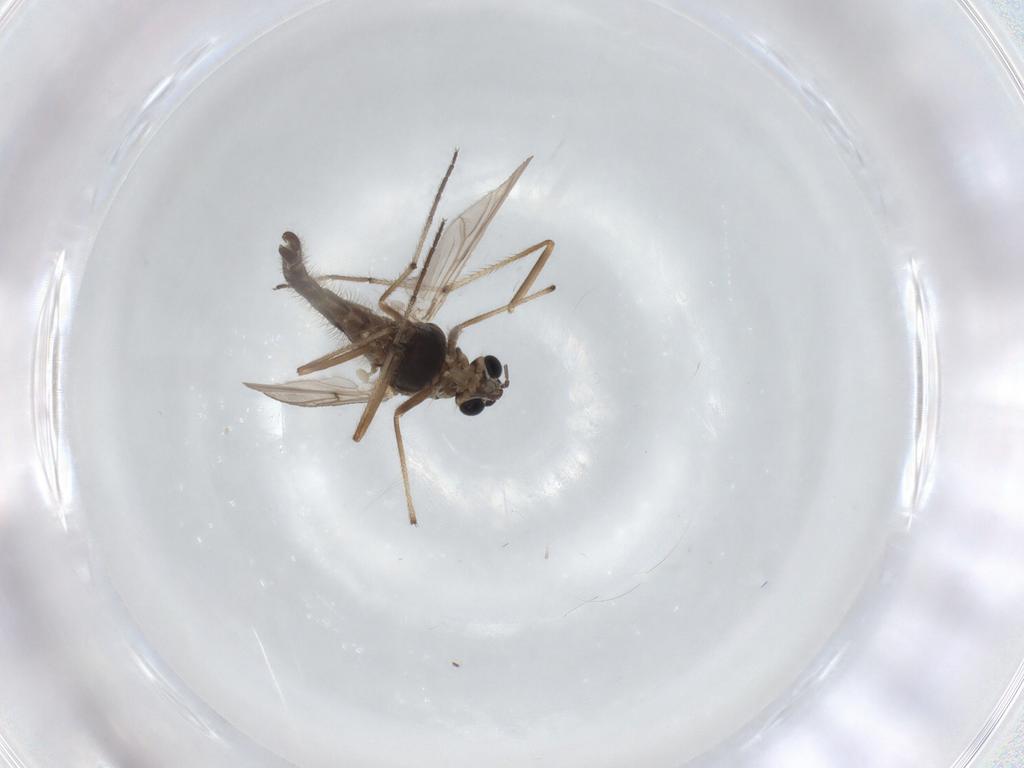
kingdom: Animalia
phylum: Arthropoda
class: Insecta
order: Diptera
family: Chironomidae
